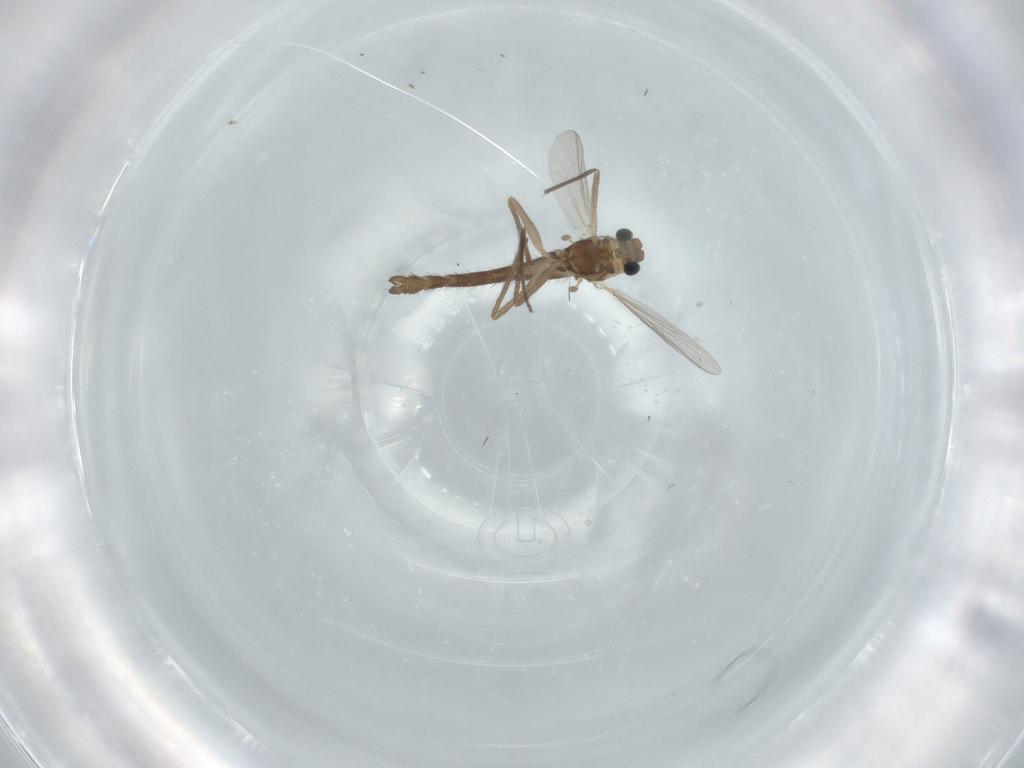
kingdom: Animalia
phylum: Arthropoda
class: Insecta
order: Diptera
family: Chironomidae
